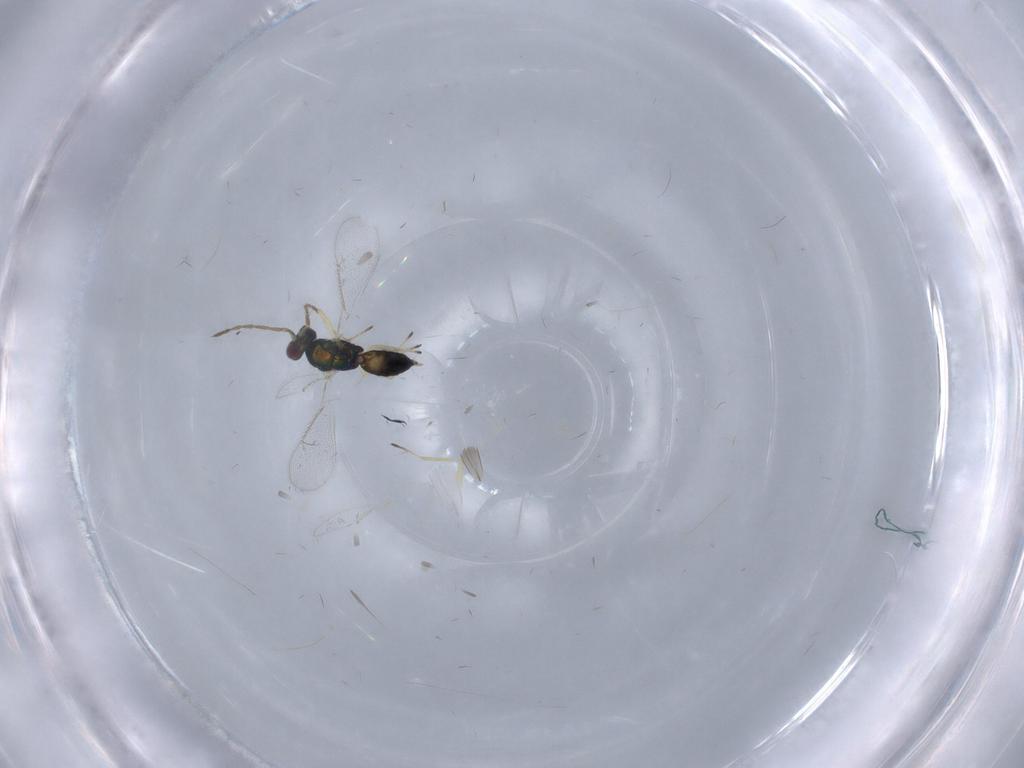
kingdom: Animalia
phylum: Arthropoda
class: Insecta
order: Hymenoptera
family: Eulophidae
